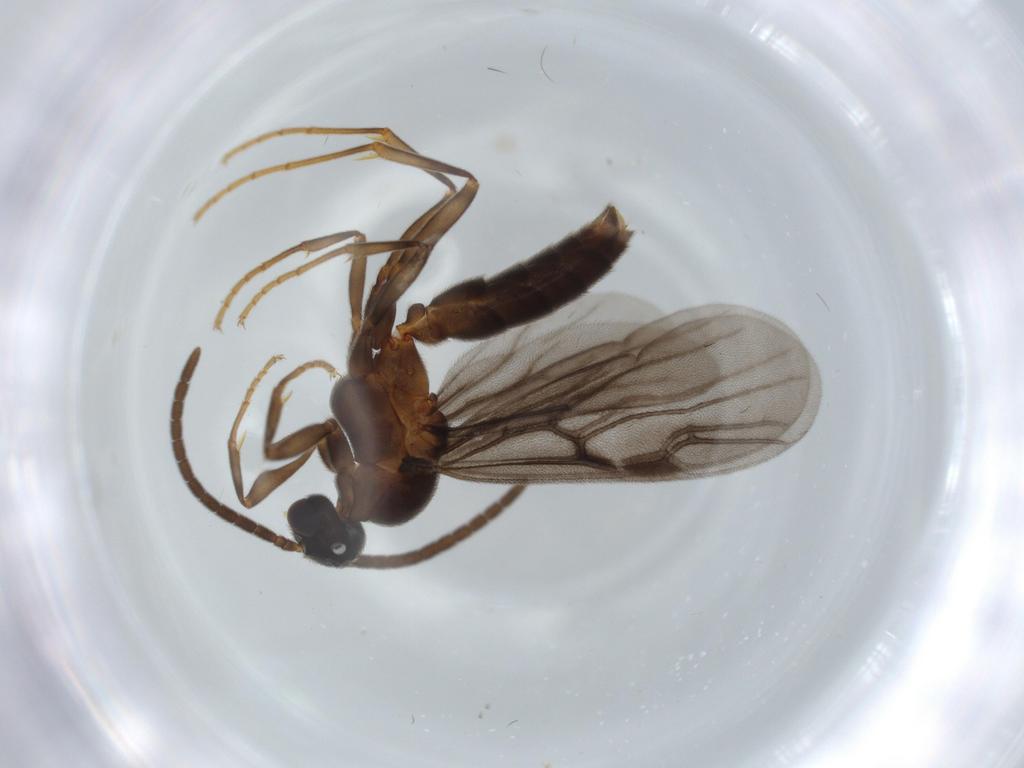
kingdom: Animalia
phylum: Arthropoda
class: Insecta
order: Hymenoptera
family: Formicidae
